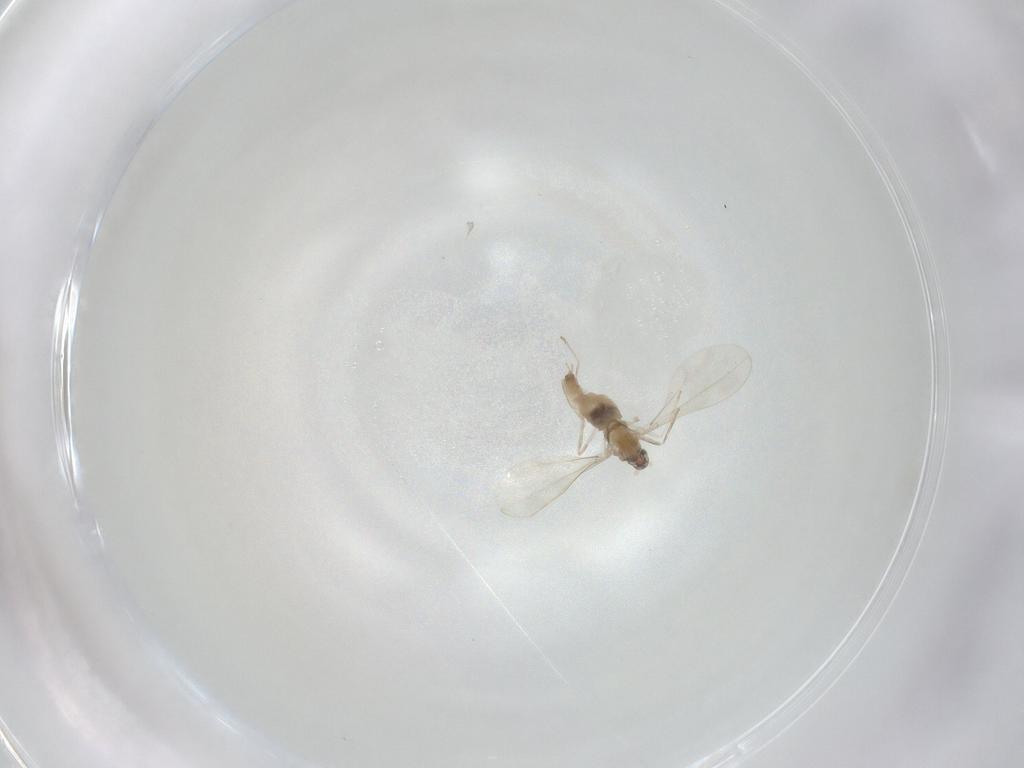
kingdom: Animalia
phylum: Arthropoda
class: Insecta
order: Diptera
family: Cecidomyiidae
